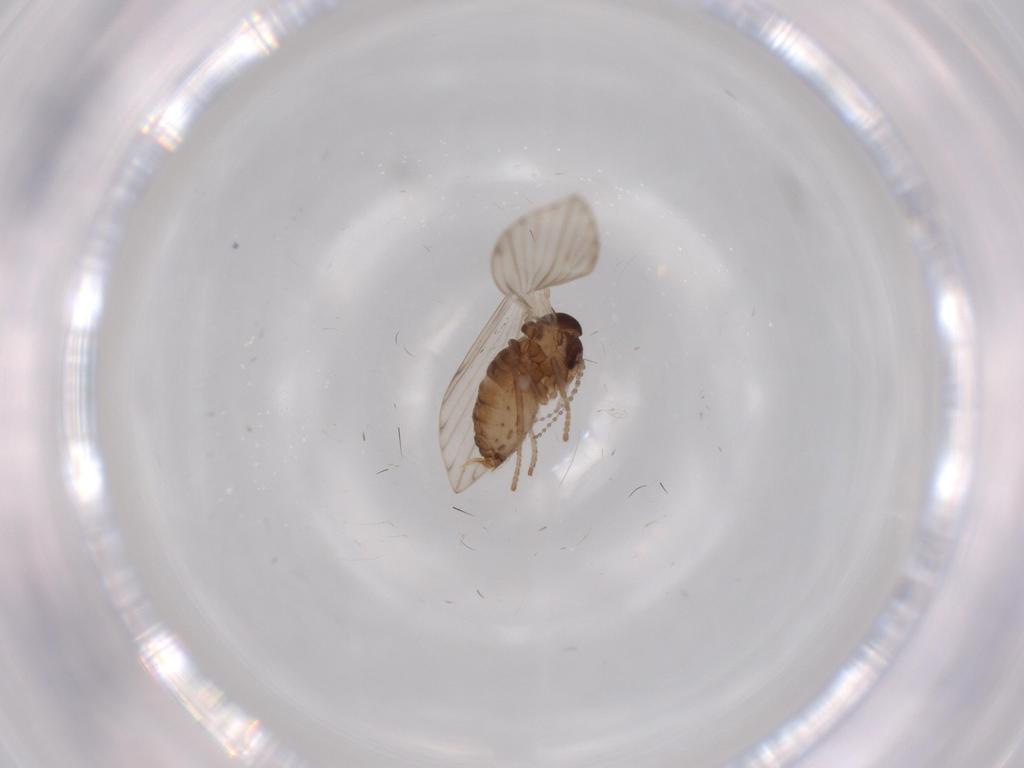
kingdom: Animalia
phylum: Arthropoda
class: Insecta
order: Diptera
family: Psychodidae
